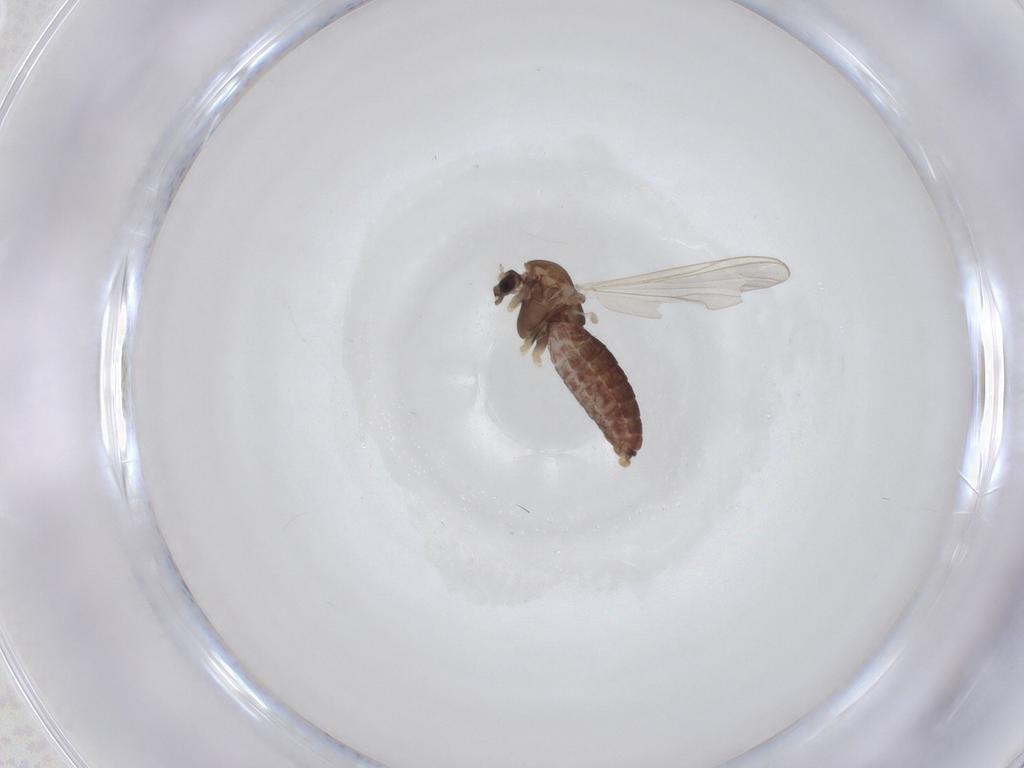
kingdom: Animalia
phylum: Arthropoda
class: Insecta
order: Diptera
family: Chironomidae
